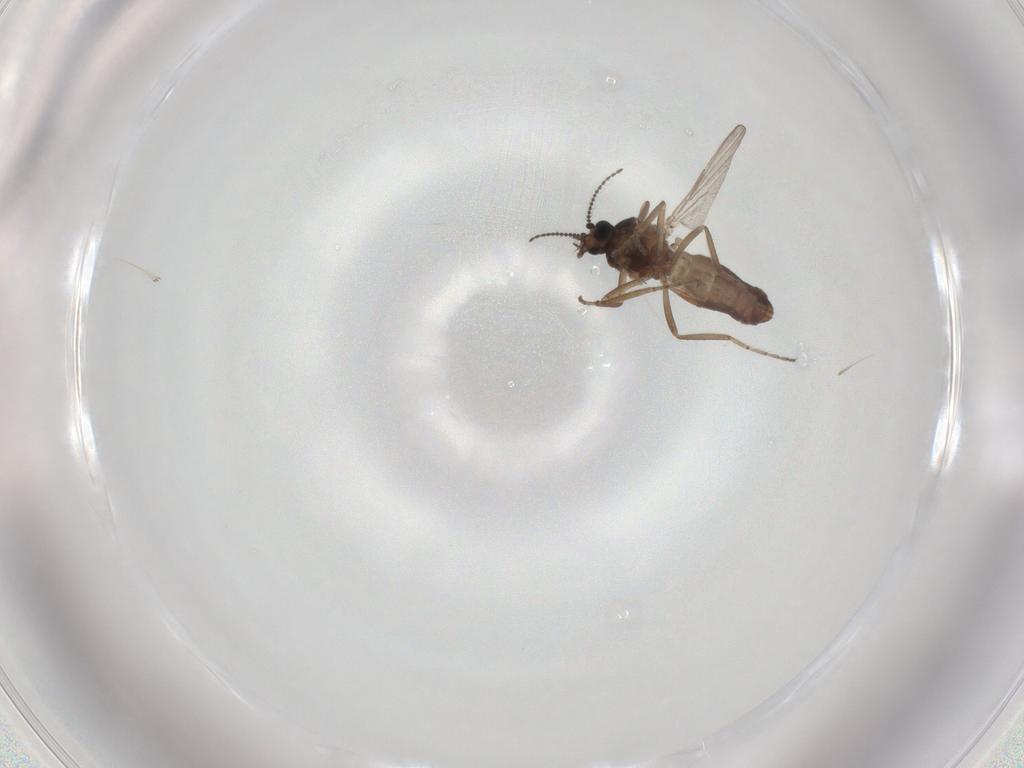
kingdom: Animalia
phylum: Arthropoda
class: Insecta
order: Diptera
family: Ceratopogonidae
